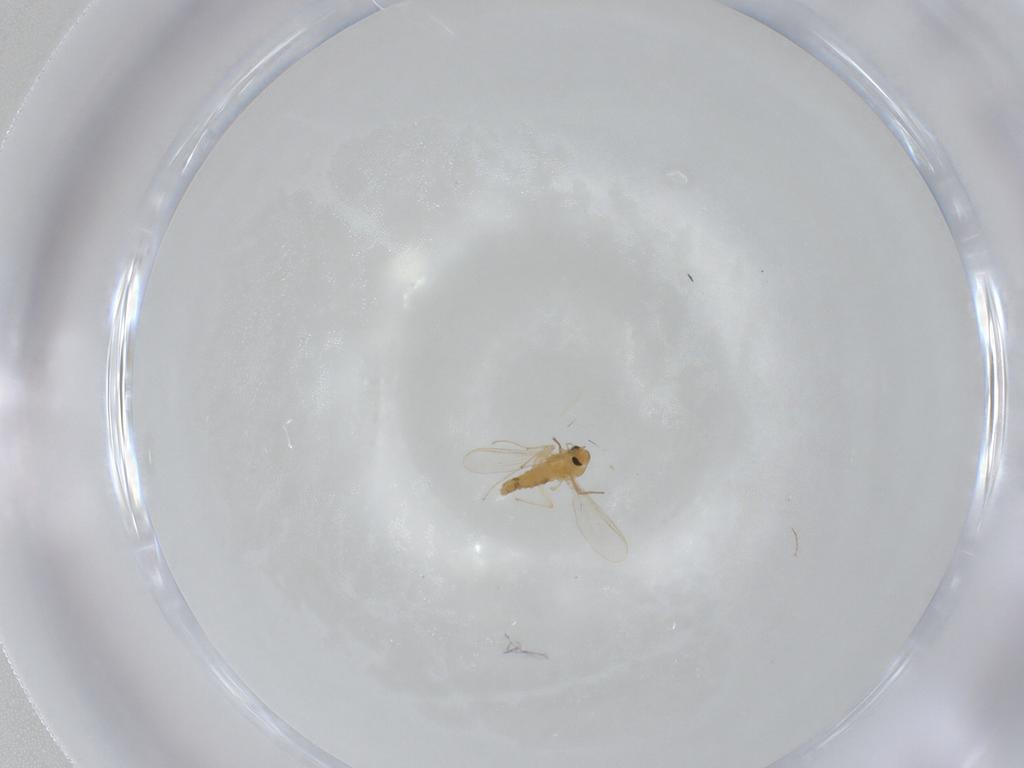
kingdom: Animalia
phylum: Arthropoda
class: Insecta
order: Diptera
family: Chironomidae
